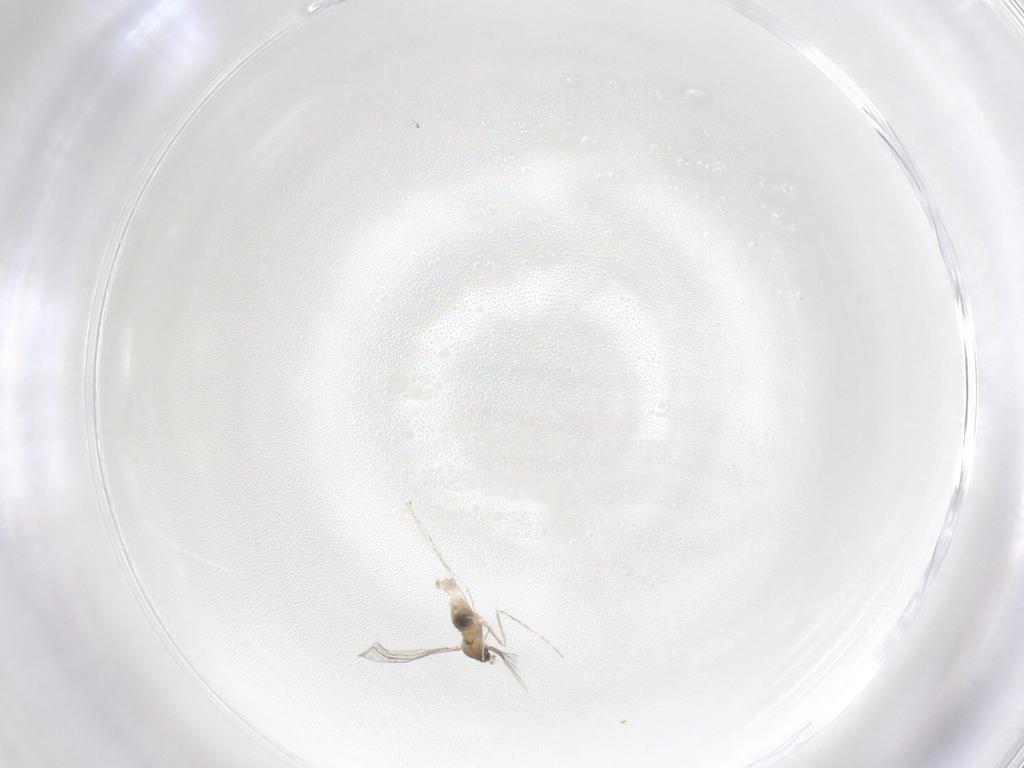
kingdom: Animalia
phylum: Arthropoda
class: Insecta
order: Diptera
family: Cecidomyiidae
